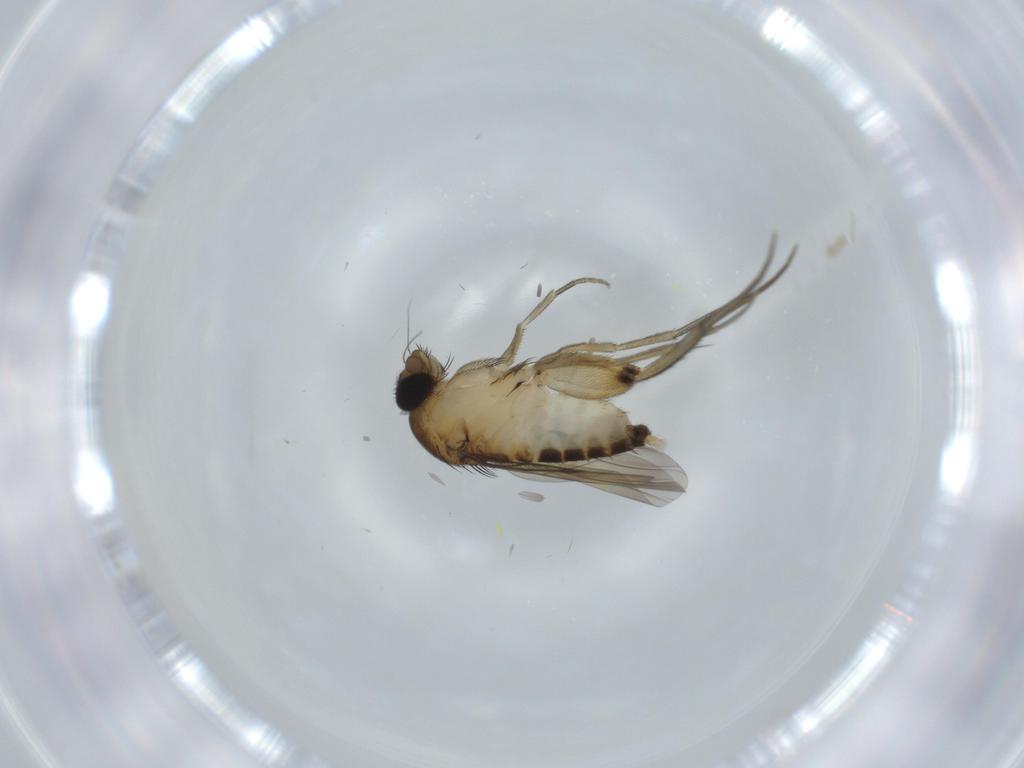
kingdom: Animalia
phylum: Arthropoda
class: Insecta
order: Diptera
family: Phoridae
